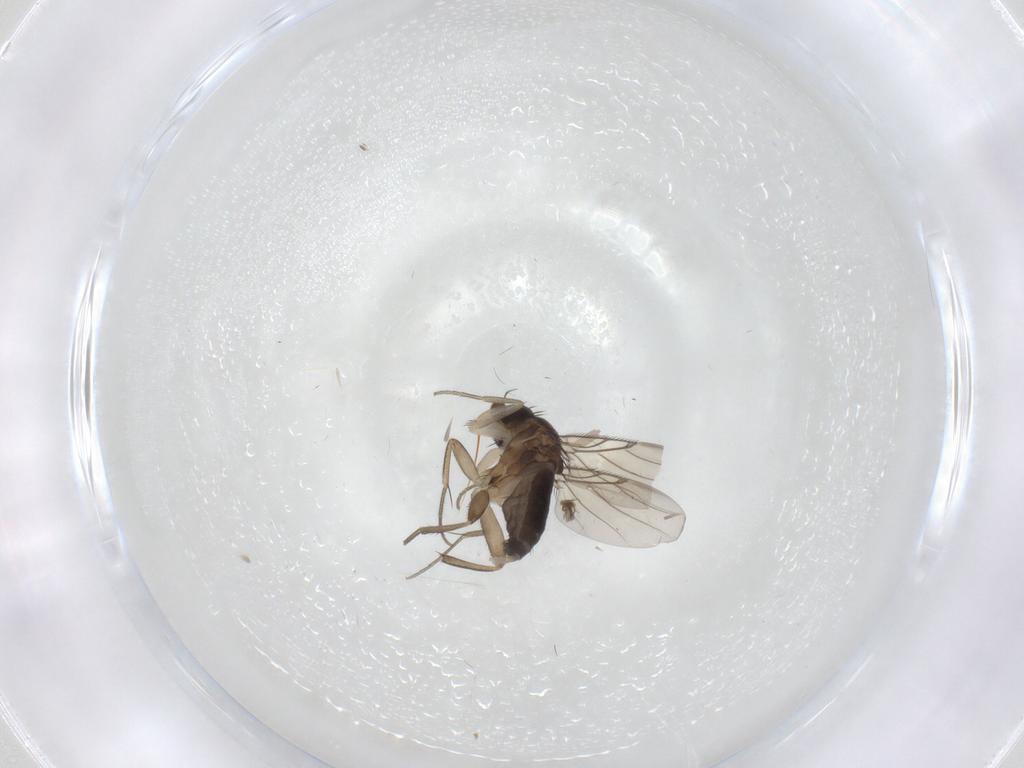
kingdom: Animalia
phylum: Arthropoda
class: Insecta
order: Diptera
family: Phoridae
